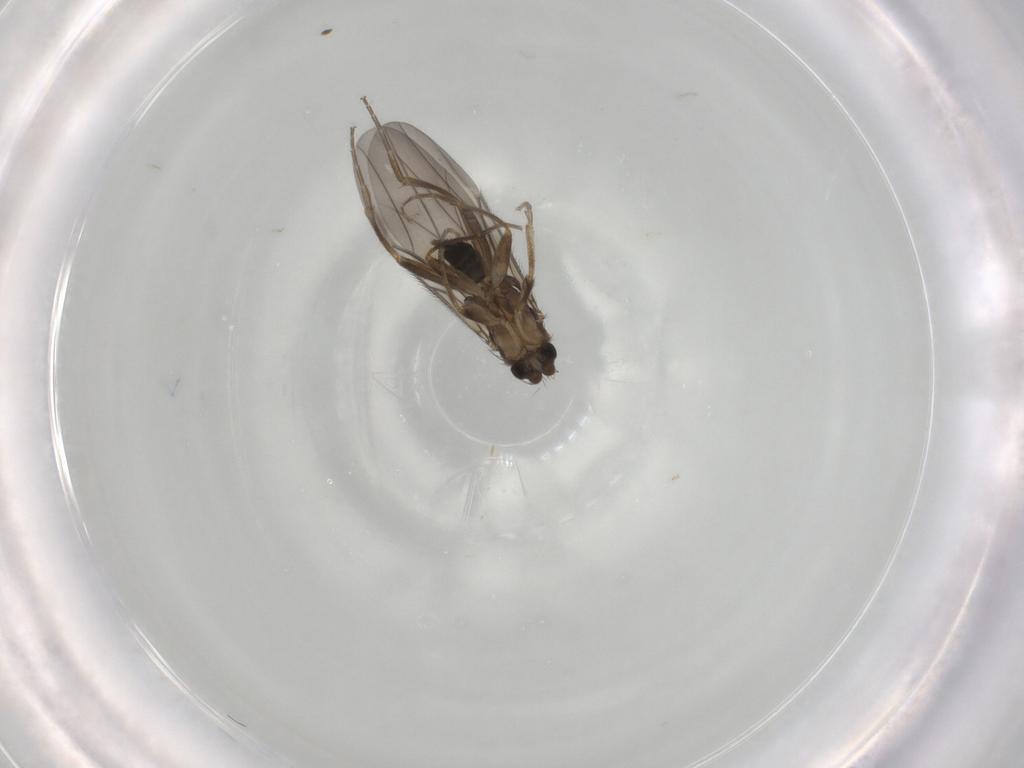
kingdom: Animalia
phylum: Arthropoda
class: Insecta
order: Diptera
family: Phoridae
